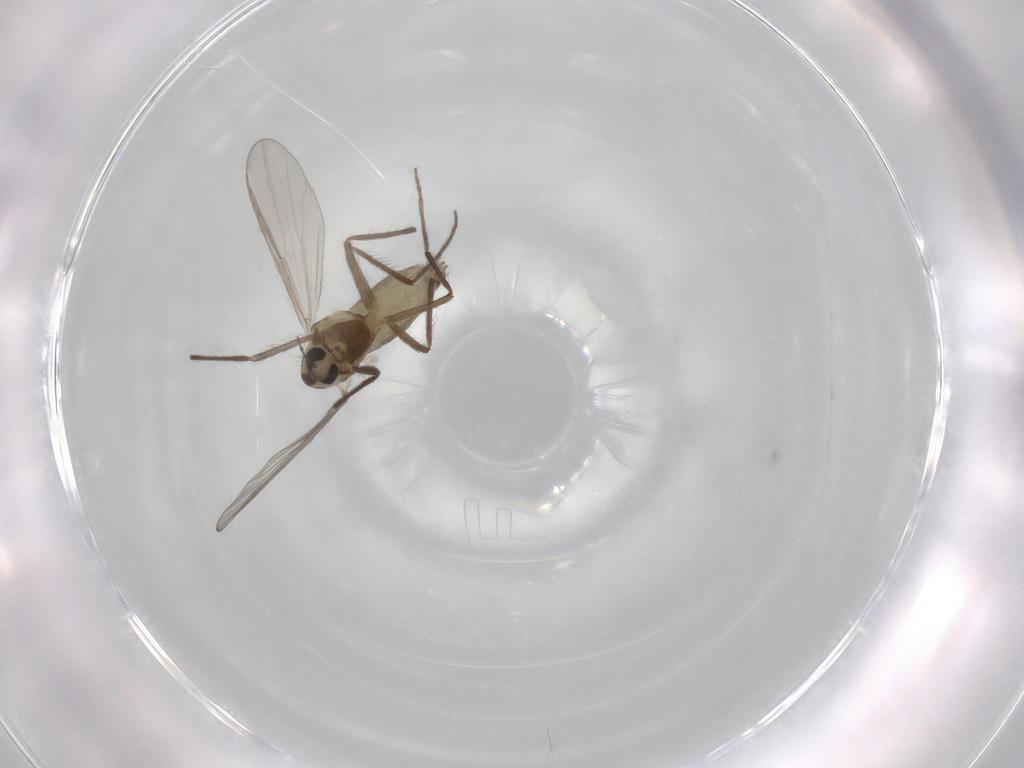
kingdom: Animalia
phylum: Arthropoda
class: Insecta
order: Diptera
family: Chironomidae
